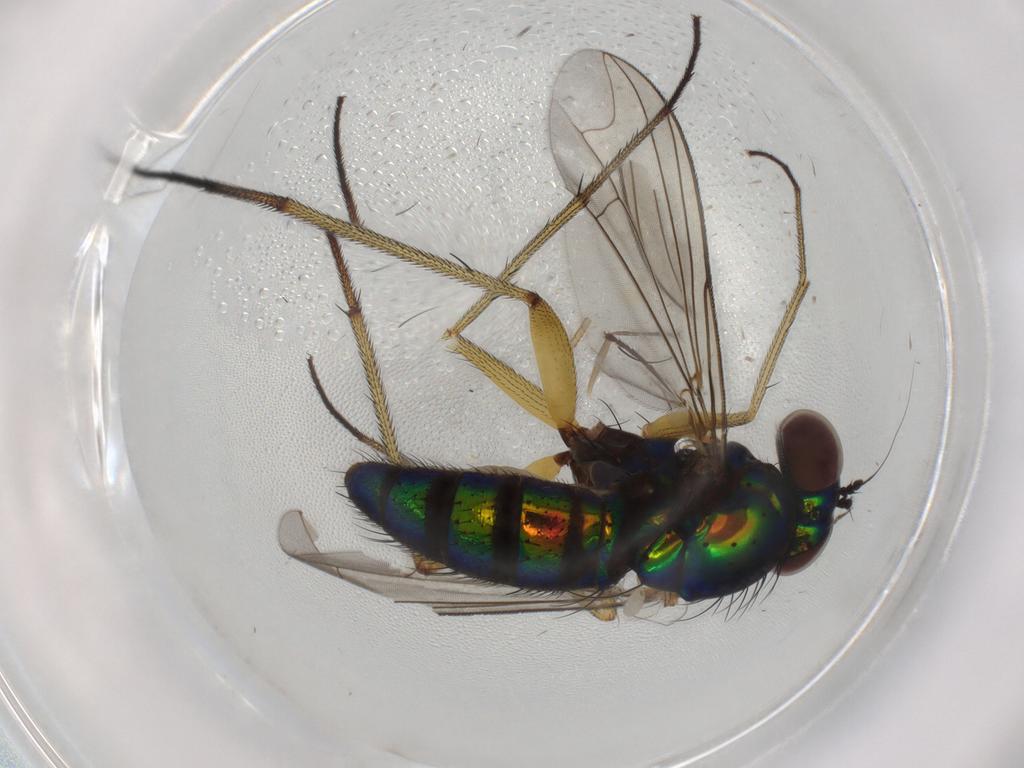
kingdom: Animalia
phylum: Arthropoda
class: Insecta
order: Diptera
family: Dolichopodidae
